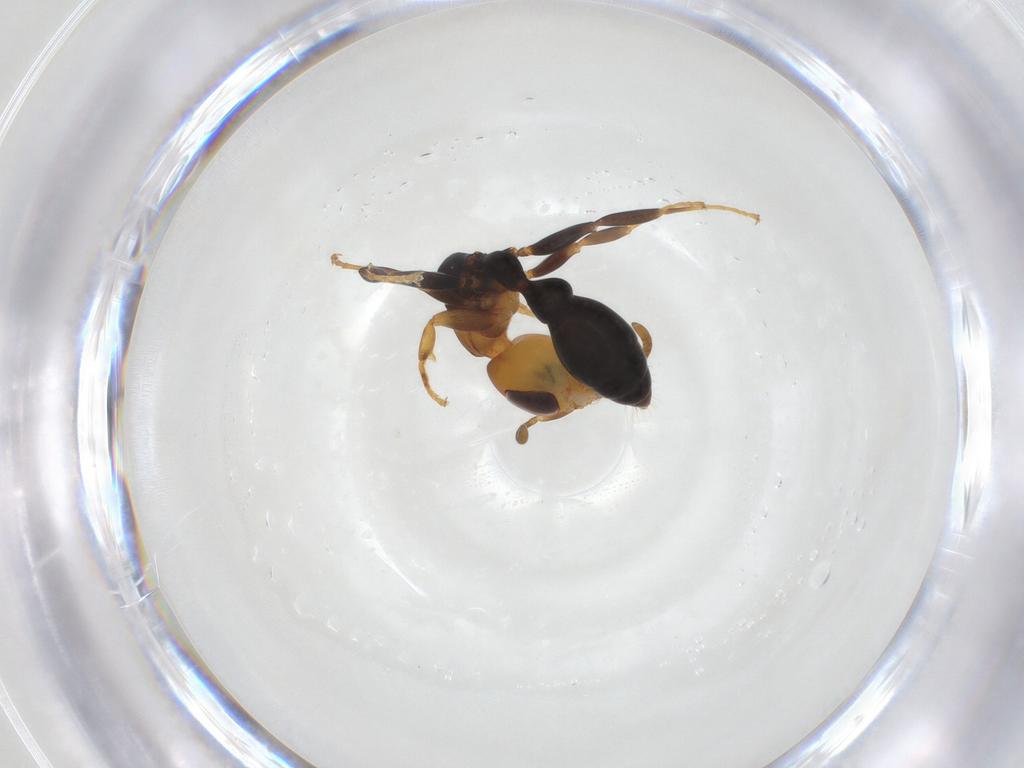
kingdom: Animalia
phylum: Arthropoda
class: Insecta
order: Hymenoptera
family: Formicidae
